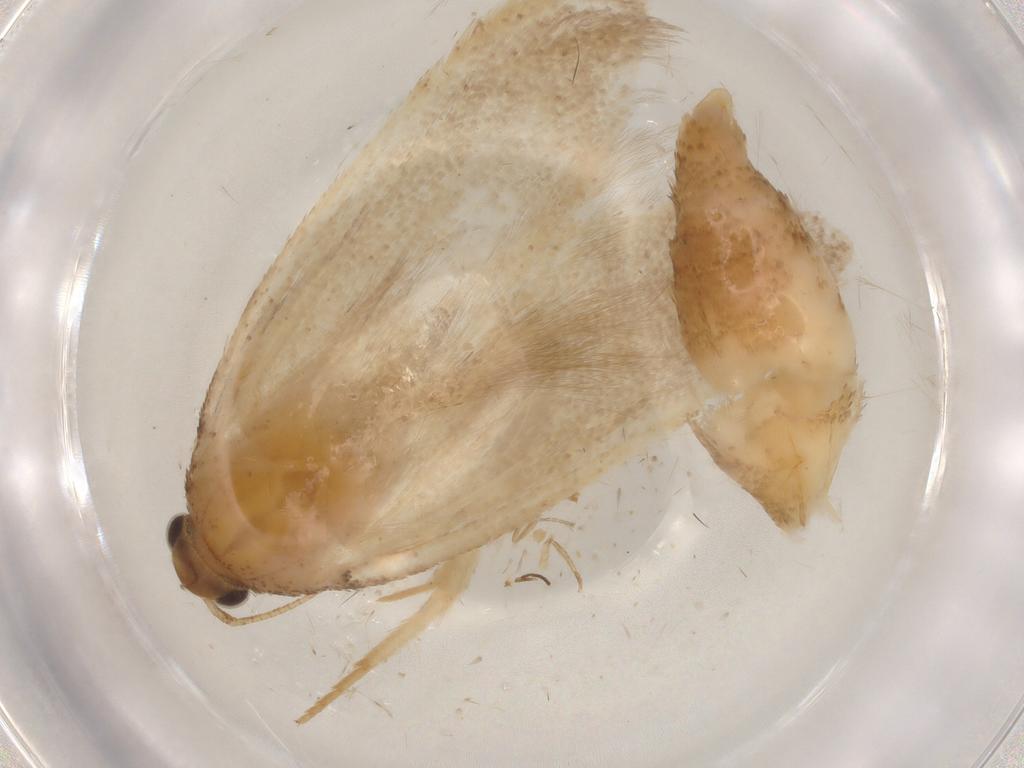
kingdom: Animalia
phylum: Arthropoda
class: Insecta
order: Lepidoptera
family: Autostichidae
